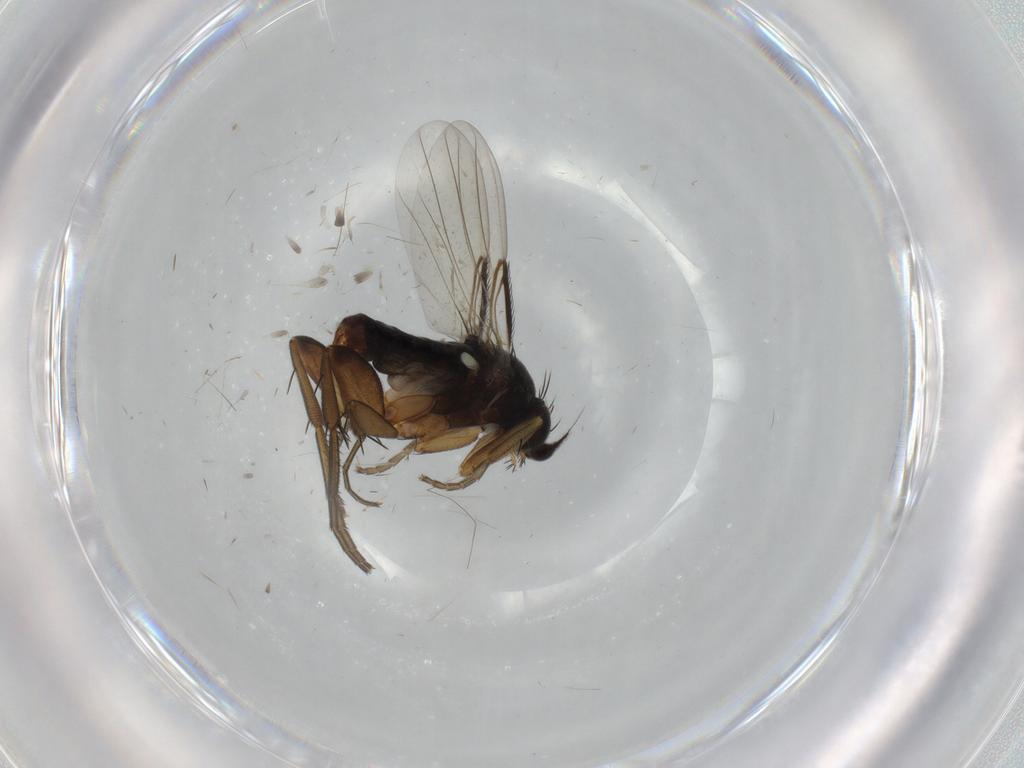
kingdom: Animalia
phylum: Arthropoda
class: Insecta
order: Diptera
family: Phoridae
